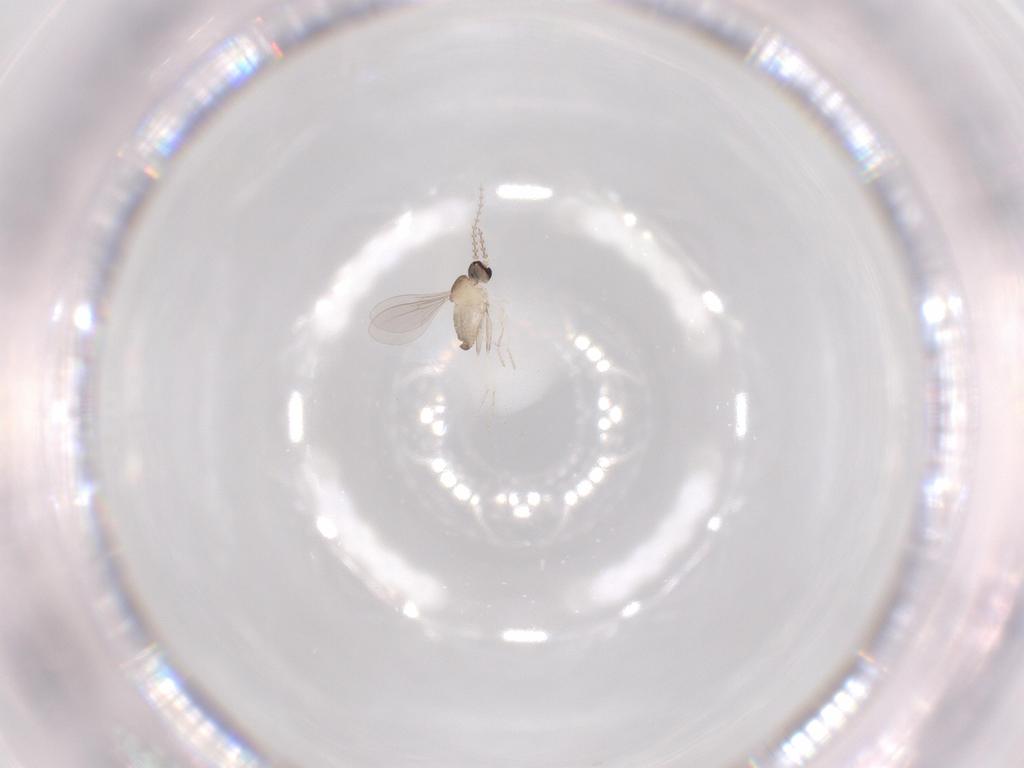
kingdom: Animalia
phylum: Arthropoda
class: Insecta
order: Diptera
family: Cecidomyiidae
